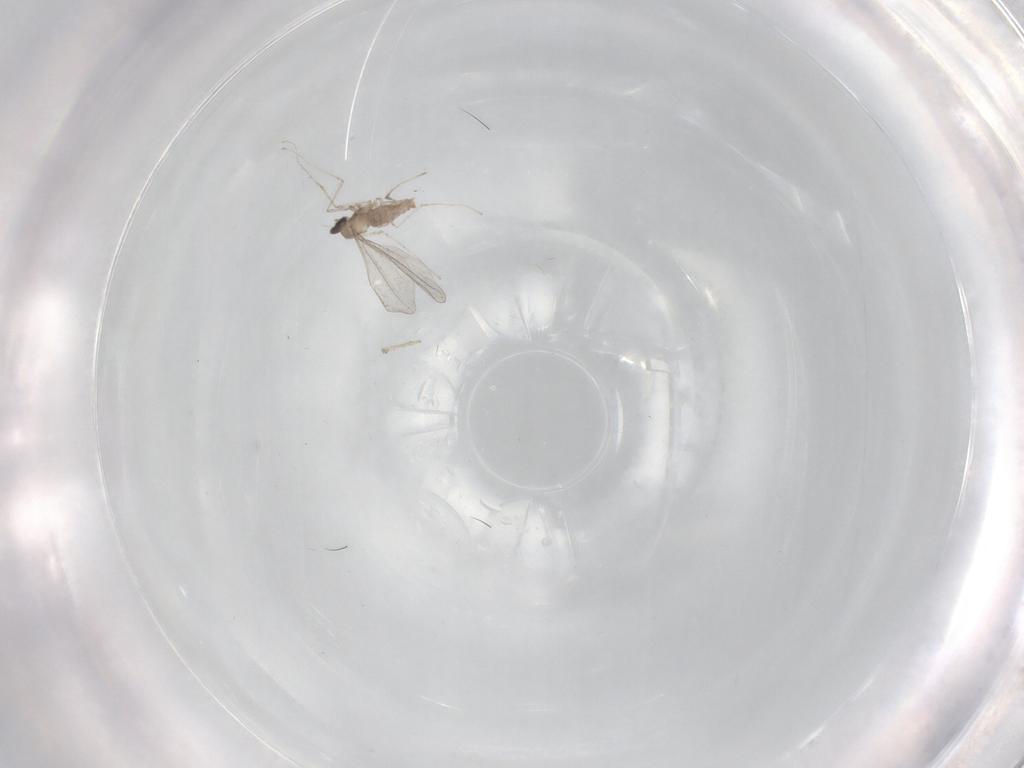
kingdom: Animalia
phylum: Arthropoda
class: Insecta
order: Diptera
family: Cecidomyiidae
